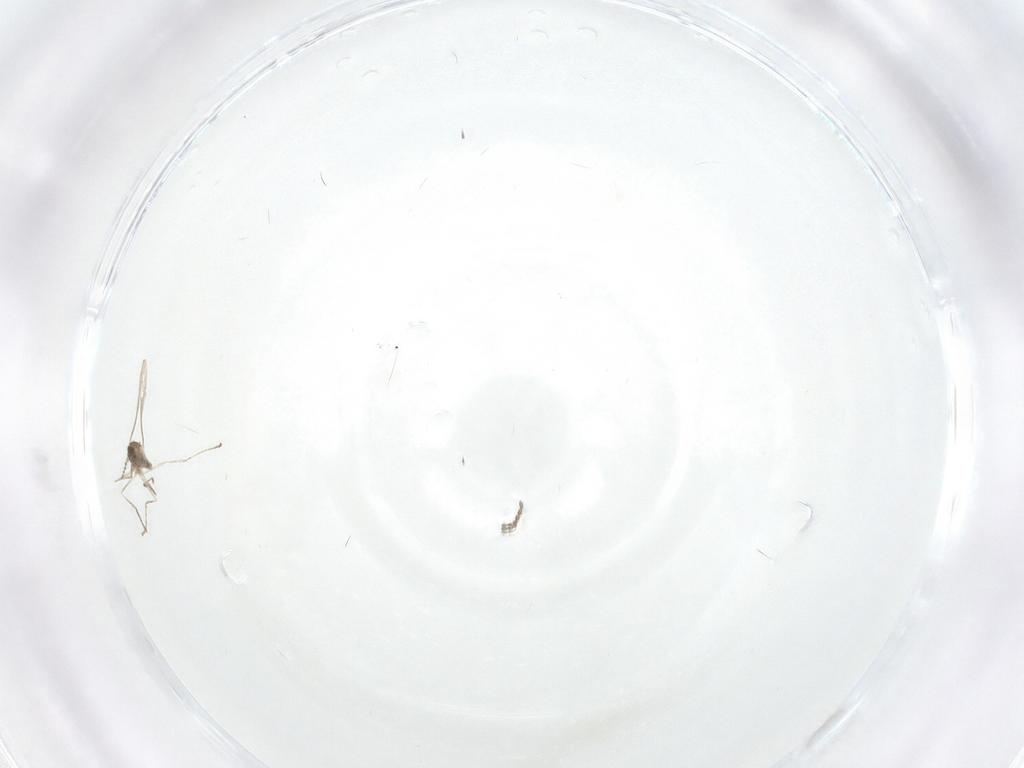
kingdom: Animalia
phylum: Arthropoda
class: Insecta
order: Diptera
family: Cecidomyiidae
